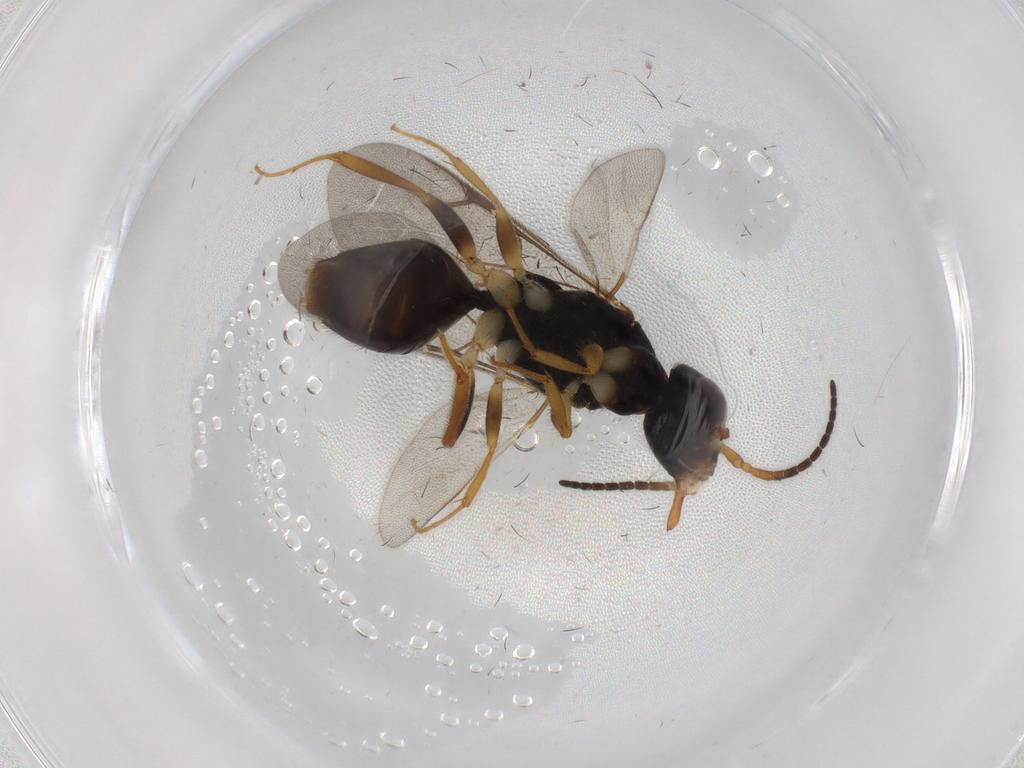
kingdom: Animalia
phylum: Arthropoda
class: Insecta
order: Hymenoptera
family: Bethylidae
